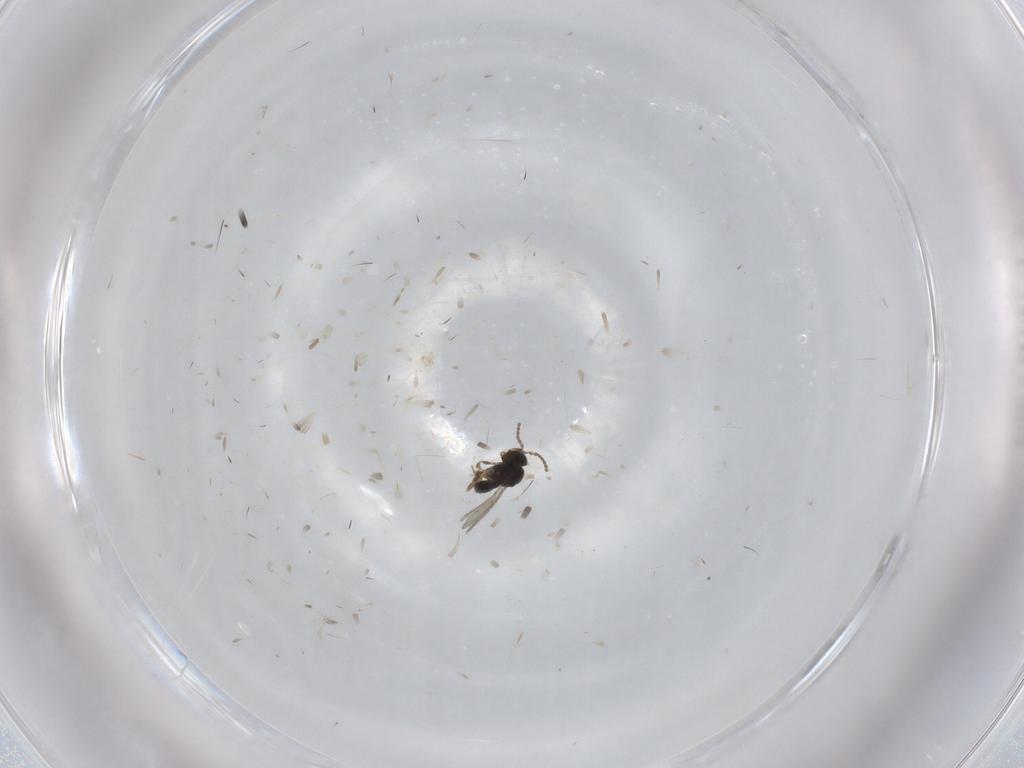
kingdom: Animalia
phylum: Arthropoda
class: Insecta
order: Hymenoptera
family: Scelionidae
